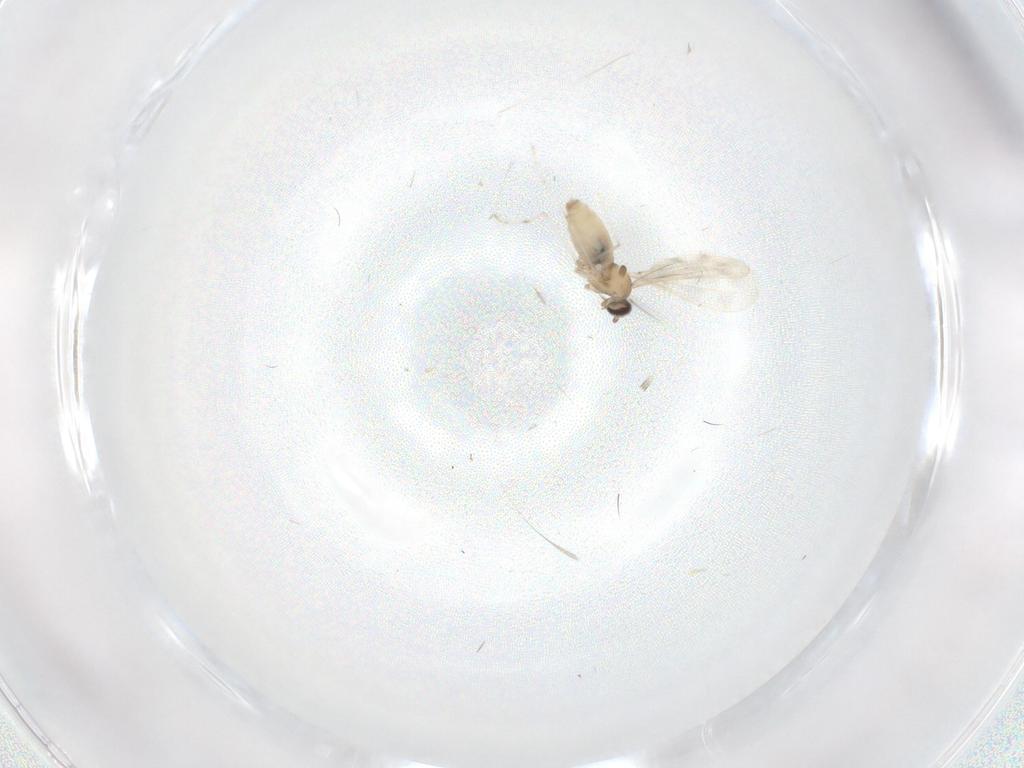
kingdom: Animalia
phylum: Arthropoda
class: Insecta
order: Diptera
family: Cecidomyiidae
